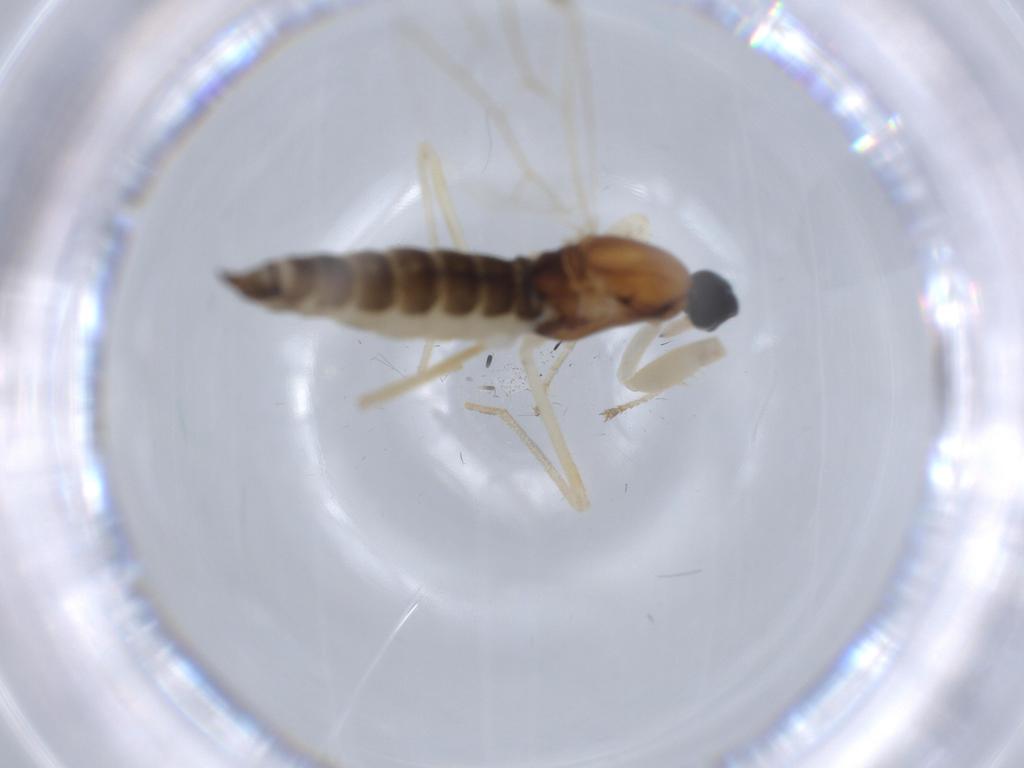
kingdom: Animalia
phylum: Arthropoda
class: Insecta
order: Diptera
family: Empididae
